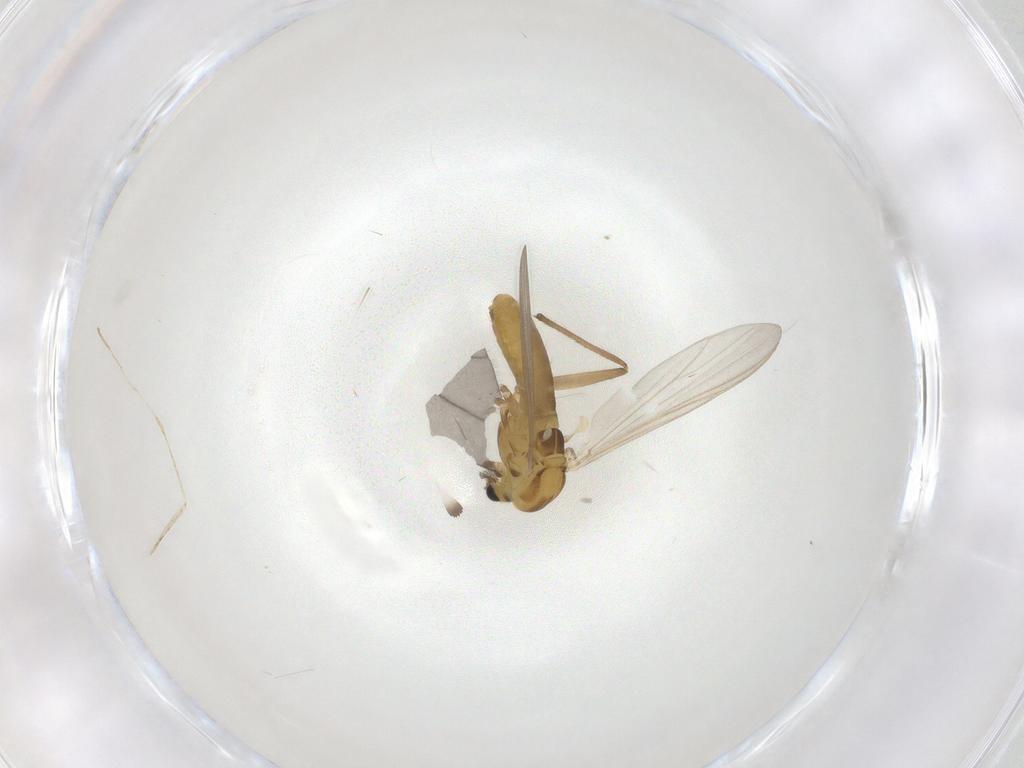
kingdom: Animalia
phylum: Arthropoda
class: Insecta
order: Diptera
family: Chironomidae
